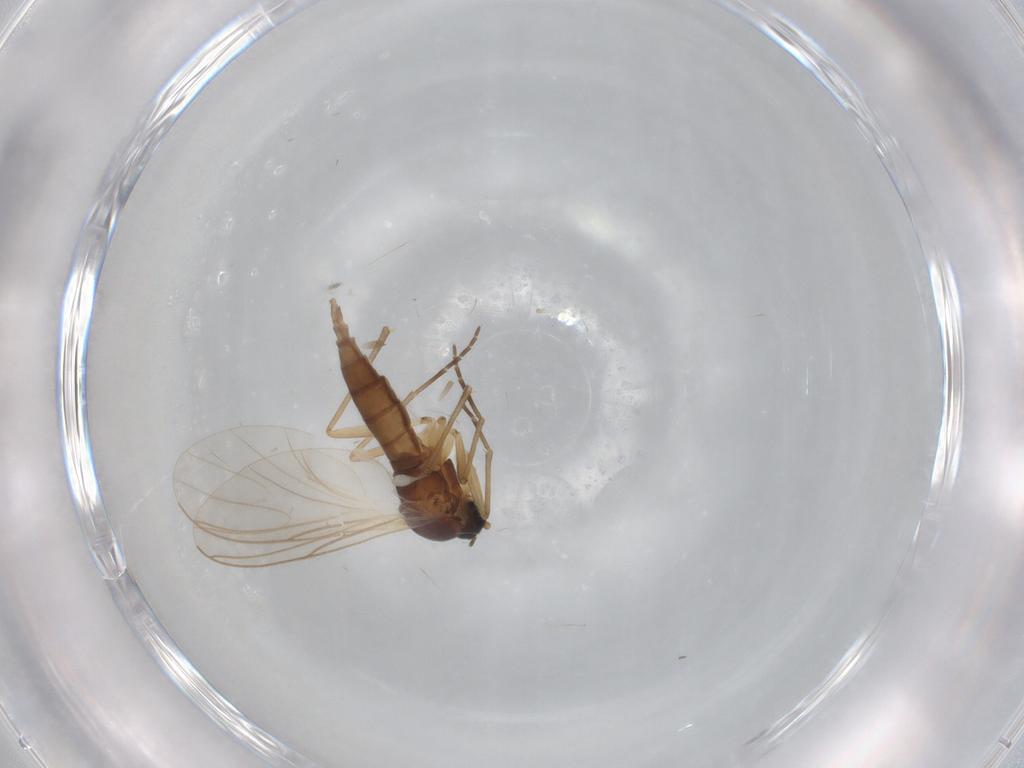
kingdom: Animalia
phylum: Arthropoda
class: Insecta
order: Diptera
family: Sciaridae
